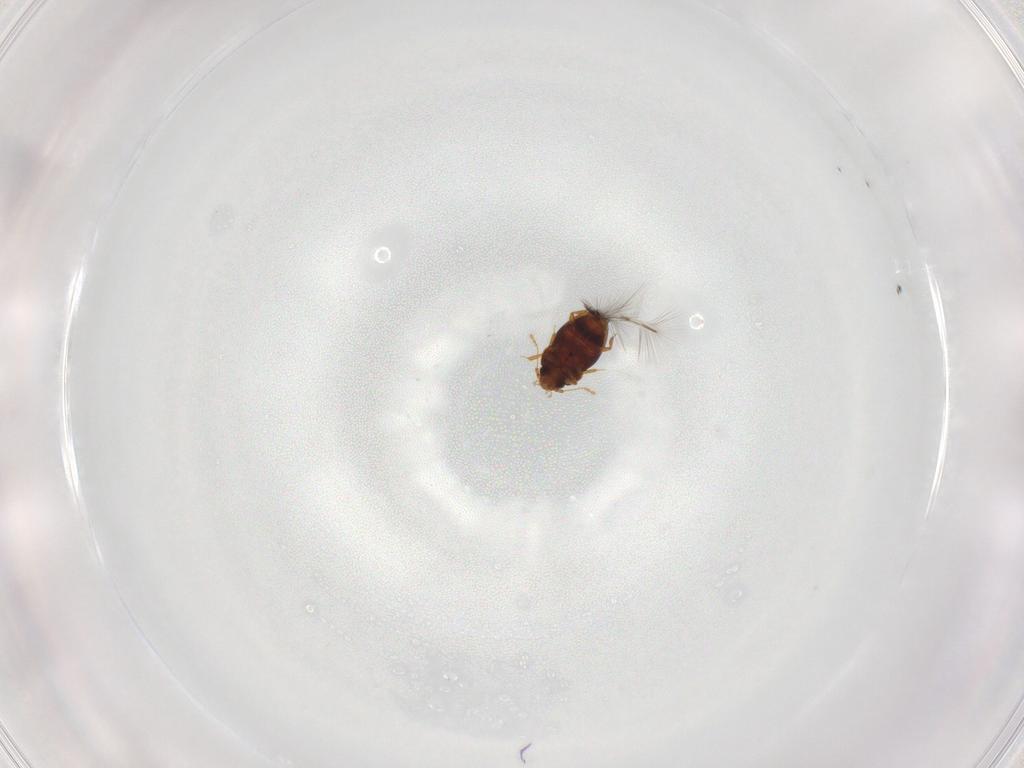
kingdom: Animalia
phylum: Arthropoda
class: Insecta
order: Coleoptera
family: Ptiliidae
